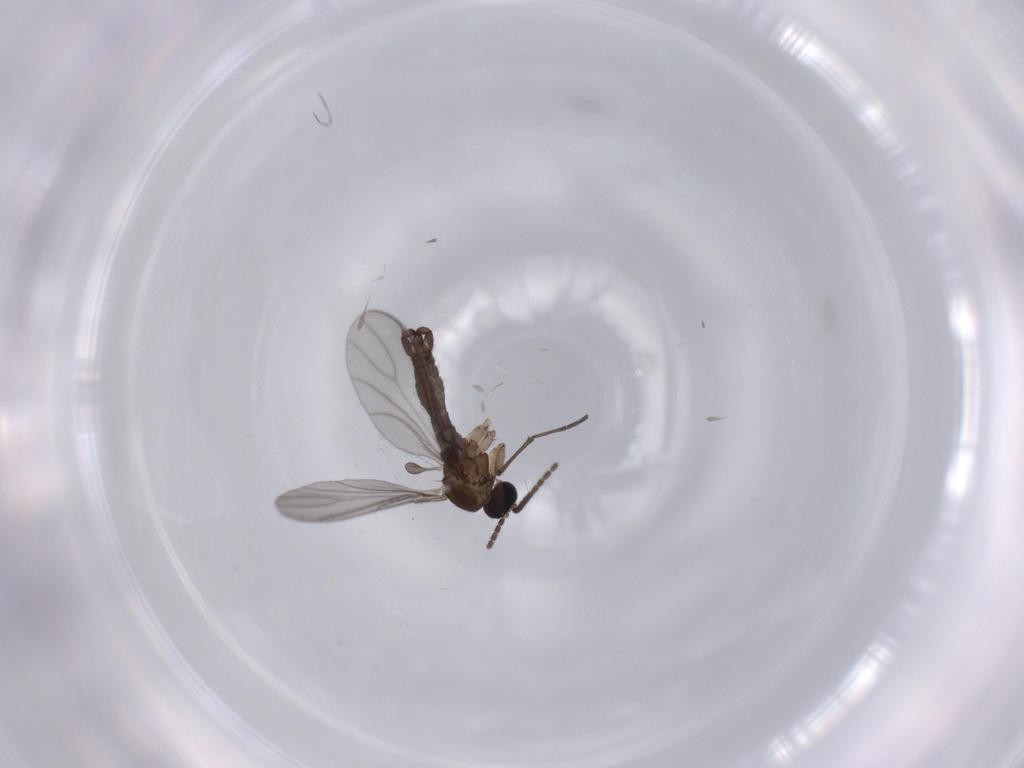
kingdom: Animalia
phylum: Arthropoda
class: Insecta
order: Diptera
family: Sciaridae
